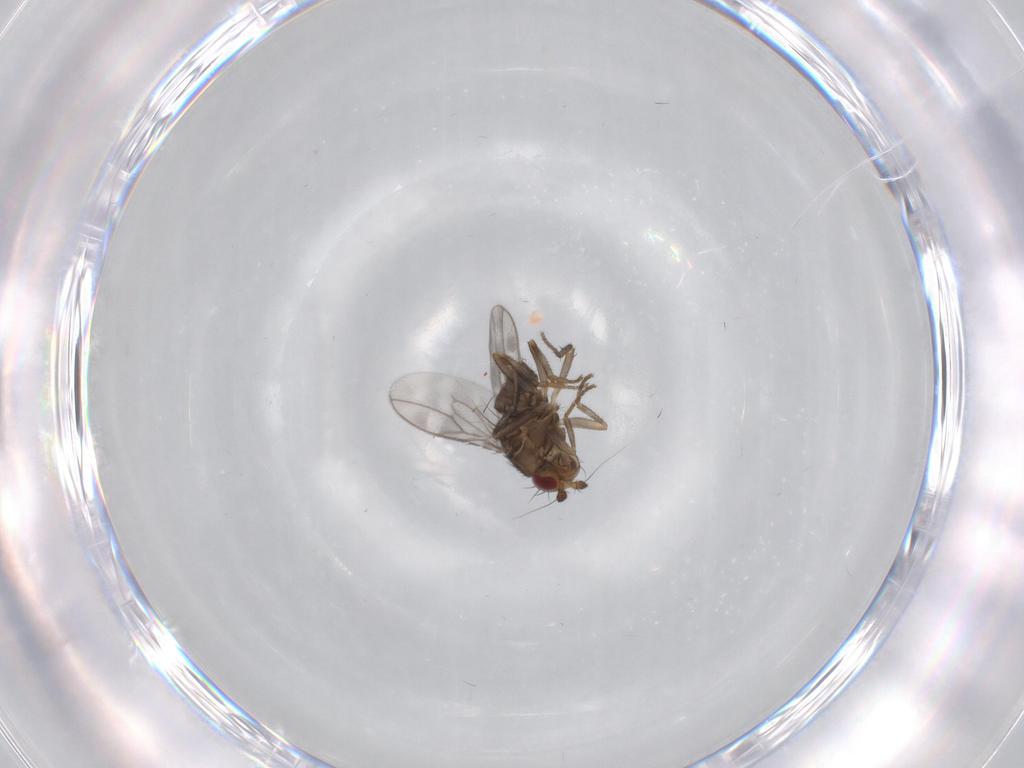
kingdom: Animalia
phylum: Arthropoda
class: Insecta
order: Diptera
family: Sphaeroceridae
